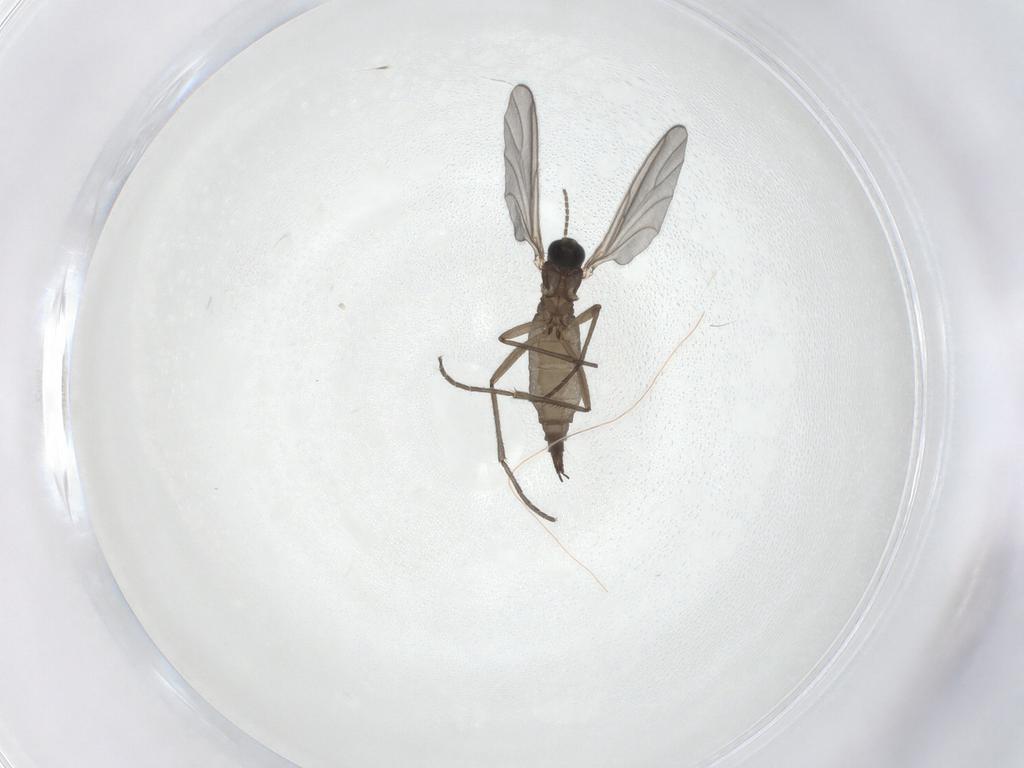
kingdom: Animalia
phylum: Arthropoda
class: Insecta
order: Diptera
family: Sciaridae
